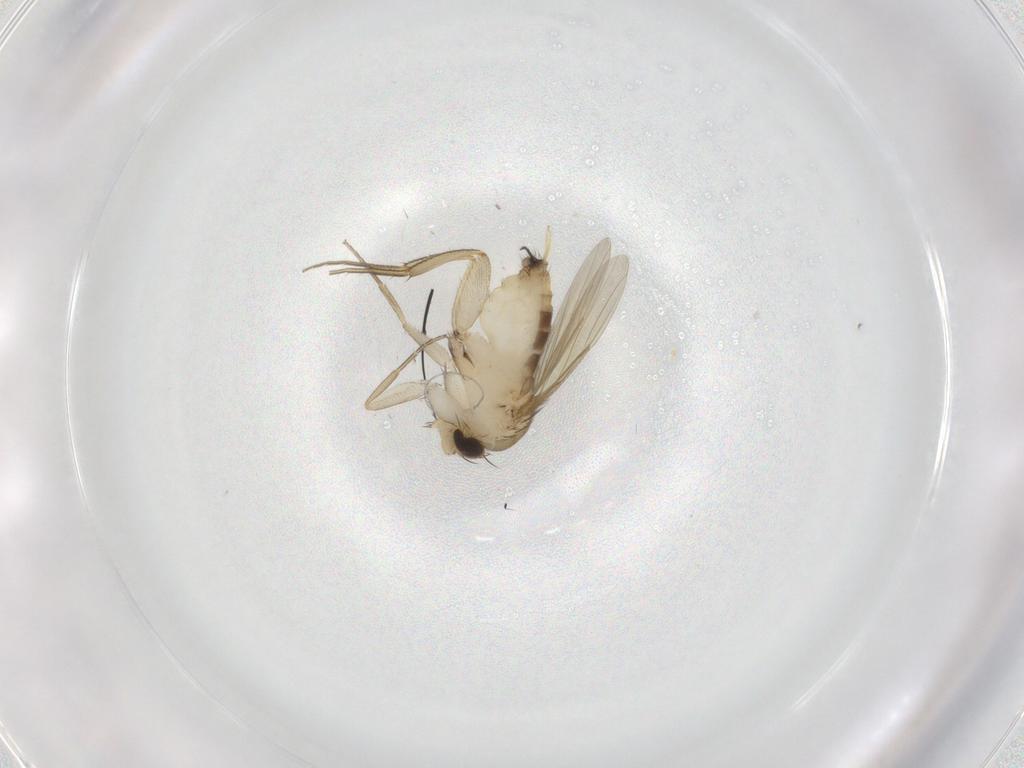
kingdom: Animalia
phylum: Arthropoda
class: Insecta
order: Diptera
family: Phoridae
